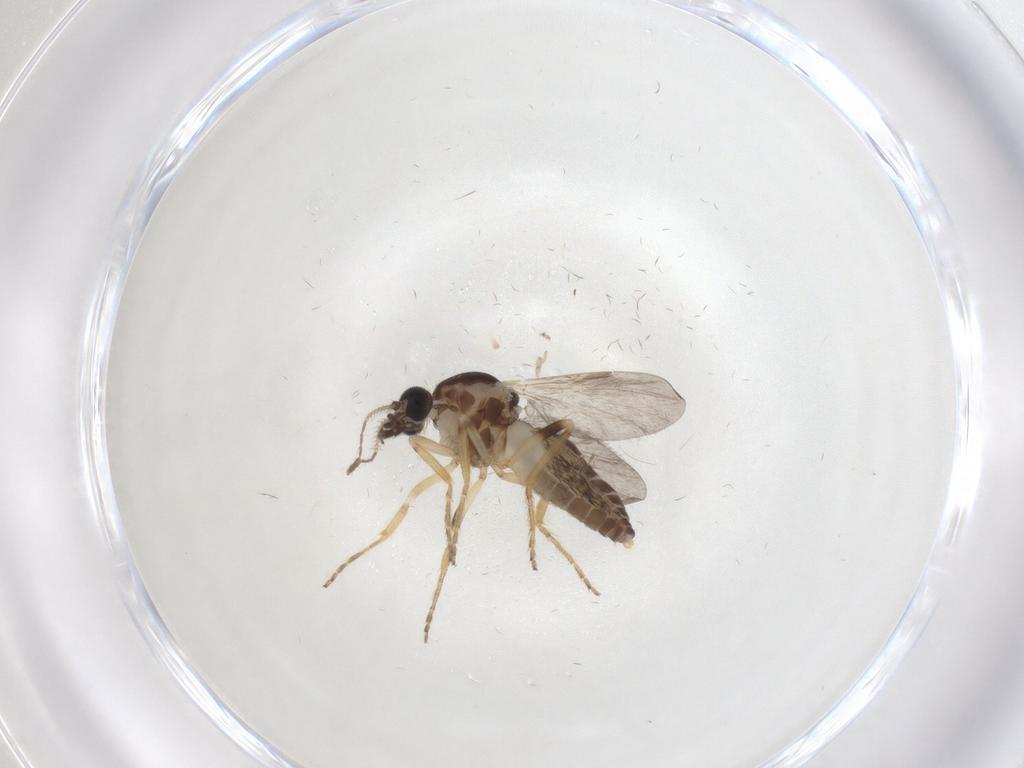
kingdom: Animalia
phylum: Arthropoda
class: Insecta
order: Diptera
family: Ceratopogonidae
